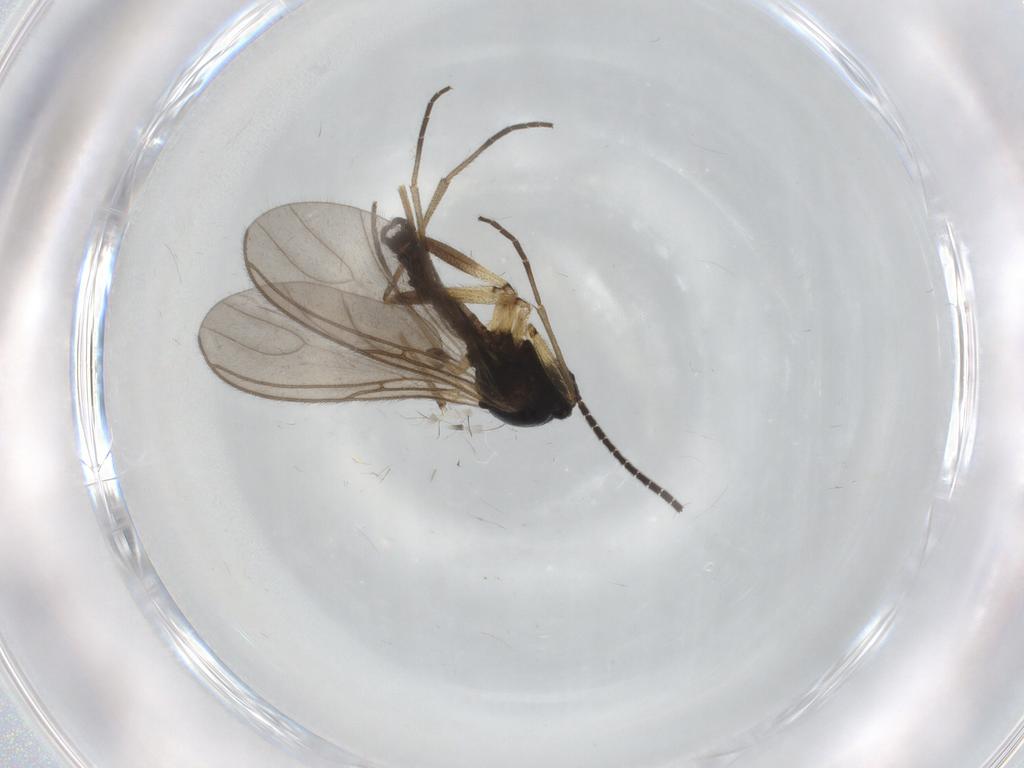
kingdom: Animalia
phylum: Arthropoda
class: Insecta
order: Diptera
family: Sciaridae
